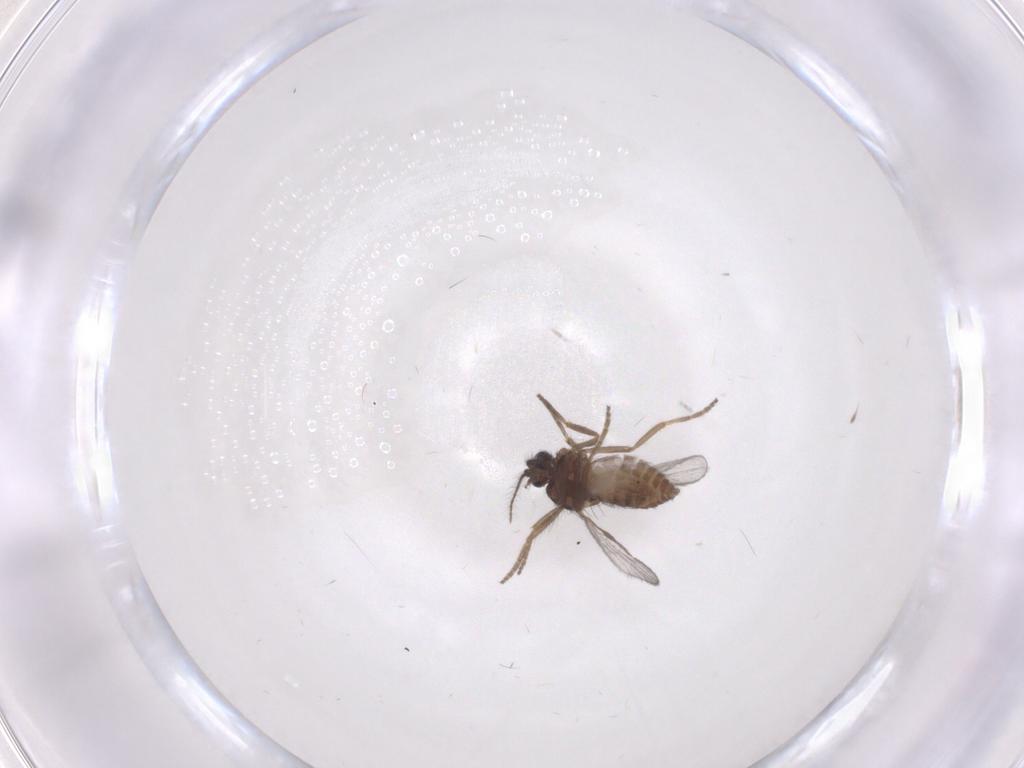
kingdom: Animalia
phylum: Arthropoda
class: Insecta
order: Diptera
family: Ceratopogonidae
